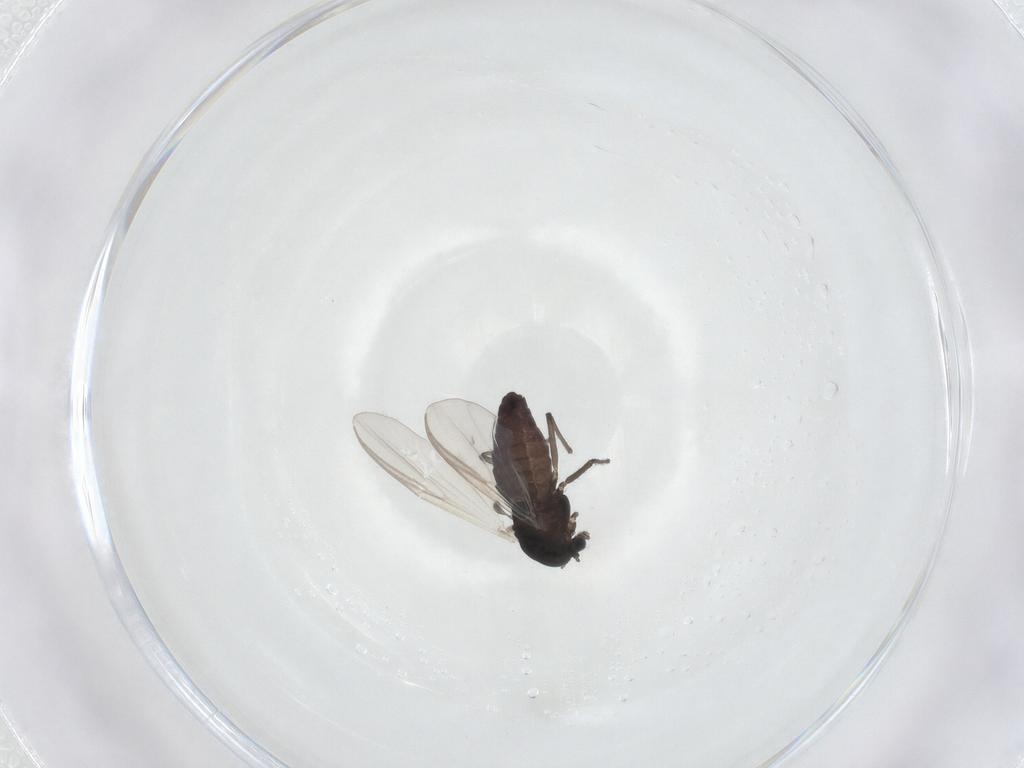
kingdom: Animalia
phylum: Arthropoda
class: Insecta
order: Diptera
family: Chironomidae
